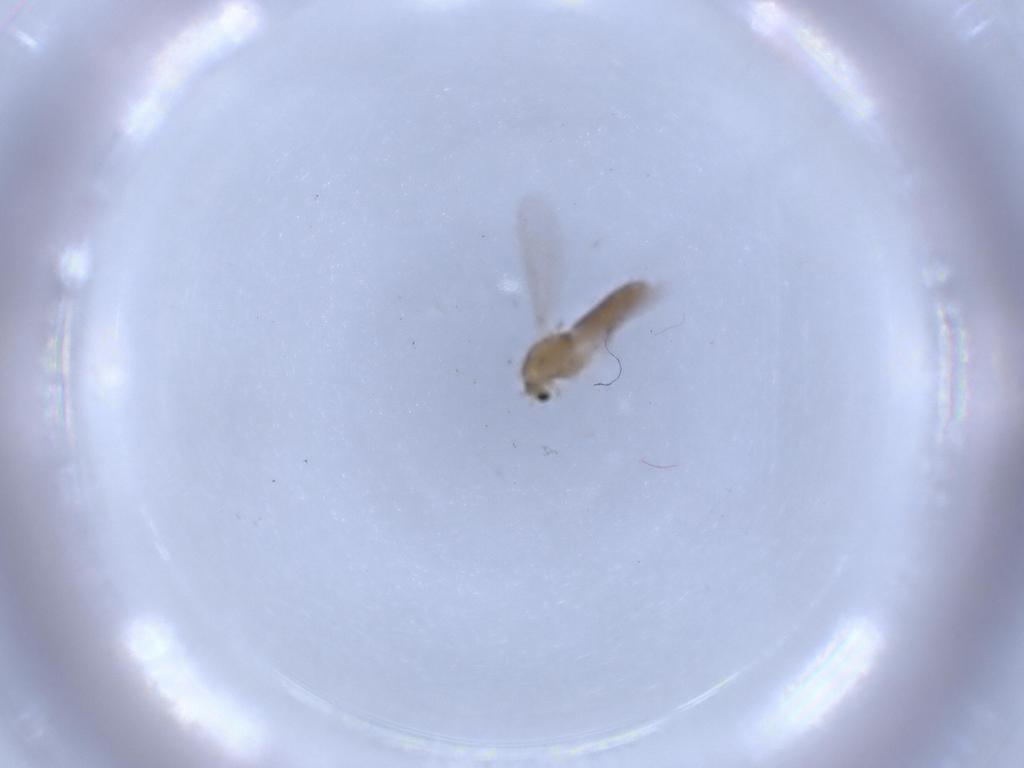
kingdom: Animalia
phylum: Arthropoda
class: Insecta
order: Diptera
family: Chironomidae
